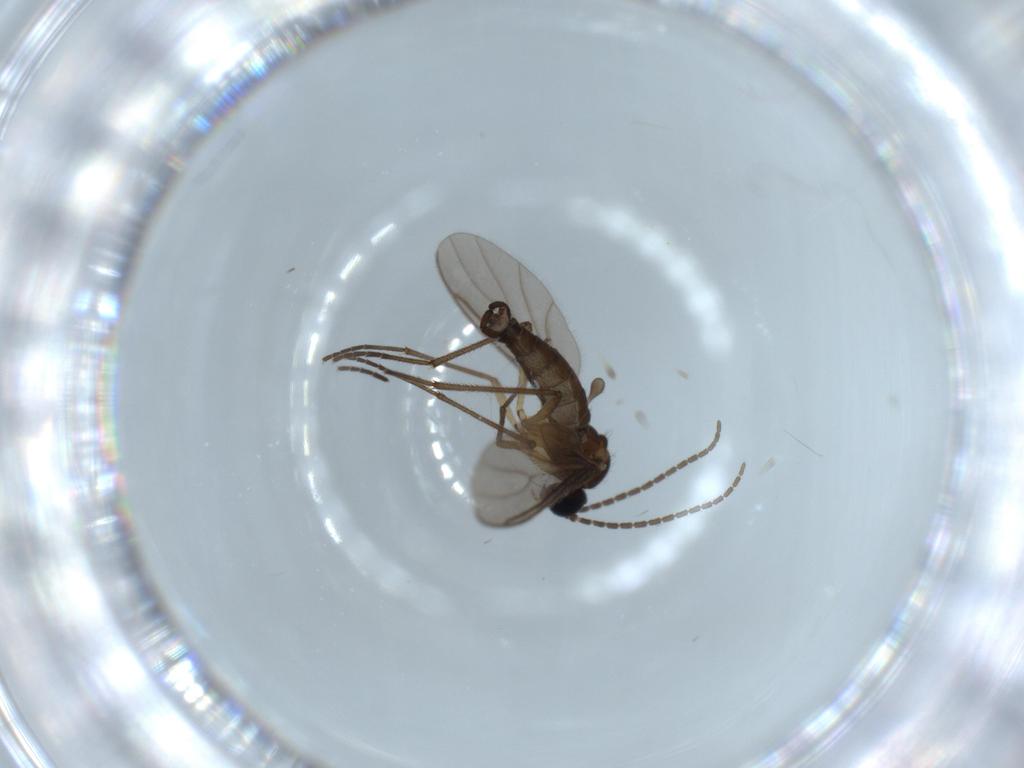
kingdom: Animalia
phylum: Arthropoda
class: Insecta
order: Diptera
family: Sciaridae
